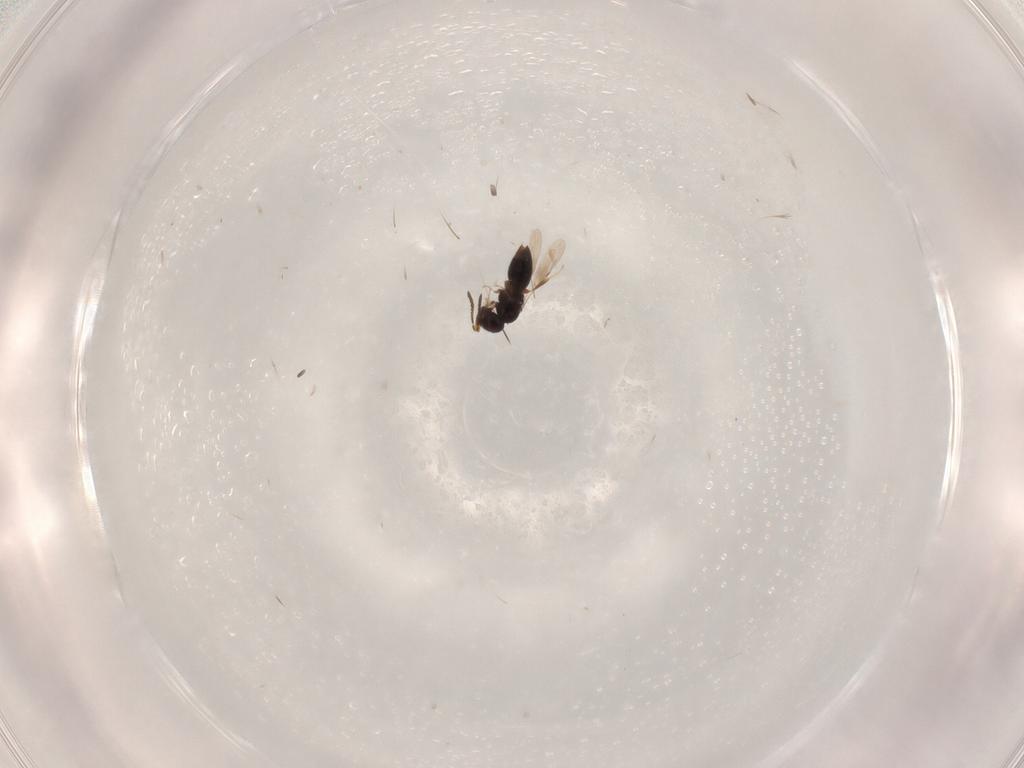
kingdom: Animalia
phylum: Arthropoda
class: Insecta
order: Hymenoptera
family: Ceraphronidae
